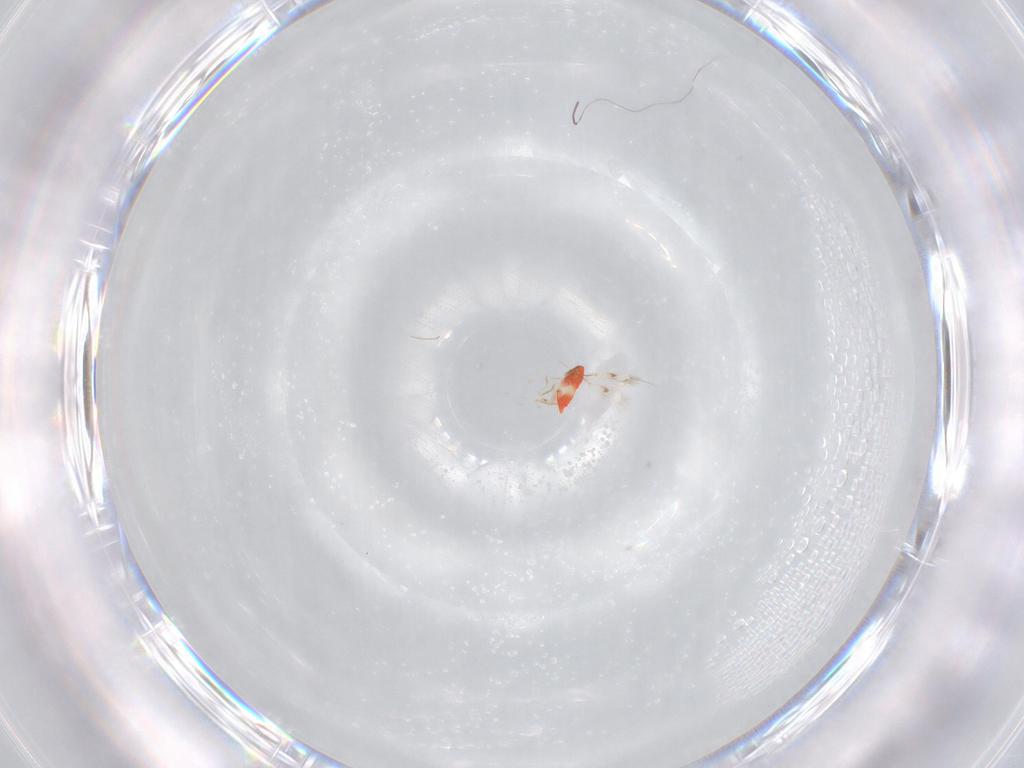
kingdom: Animalia
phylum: Arthropoda
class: Insecta
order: Hymenoptera
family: Trichogrammatidae
